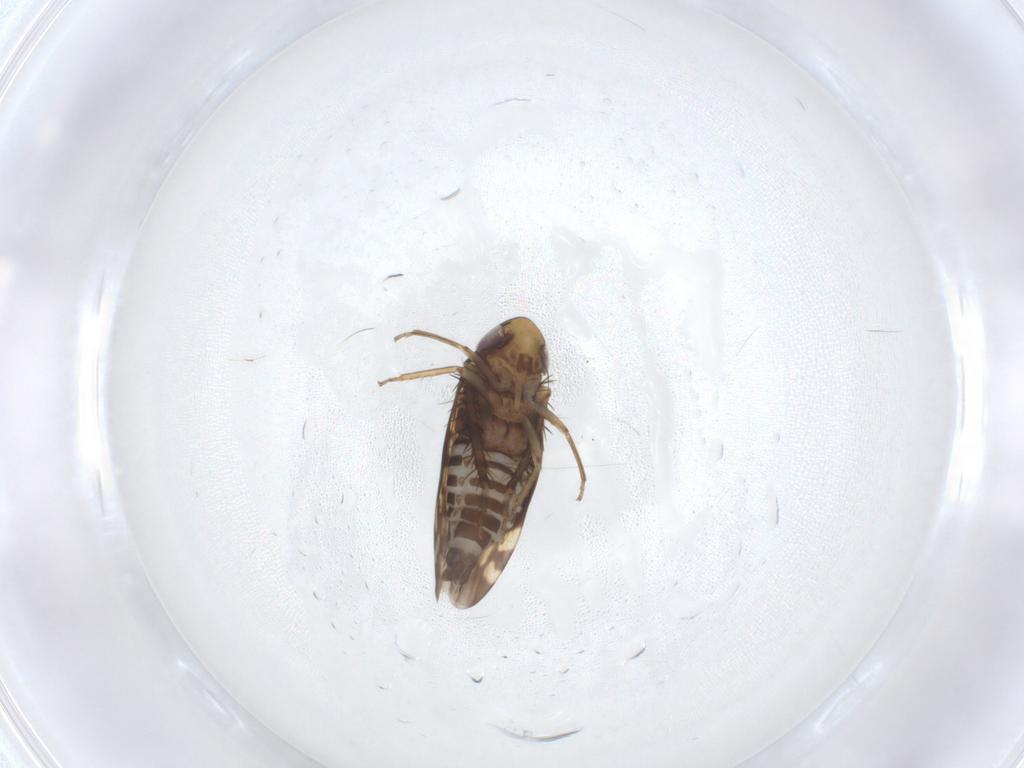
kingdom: Animalia
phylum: Arthropoda
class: Insecta
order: Hemiptera
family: Cicadellidae
